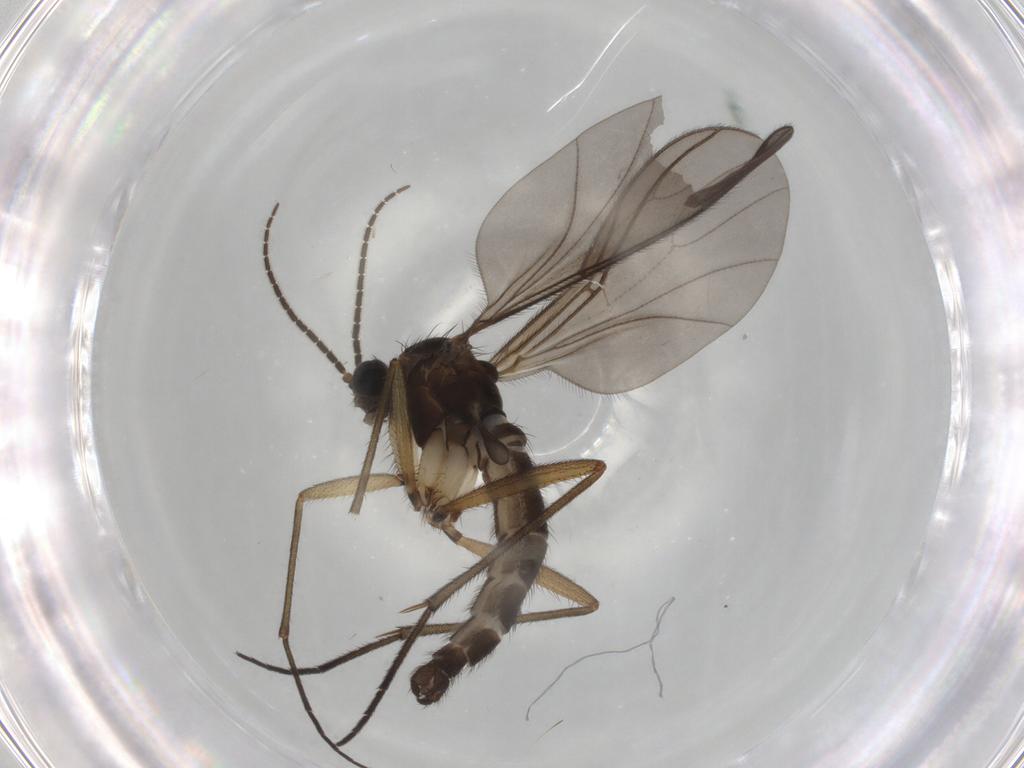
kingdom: Animalia
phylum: Arthropoda
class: Insecta
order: Diptera
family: Sciaridae
